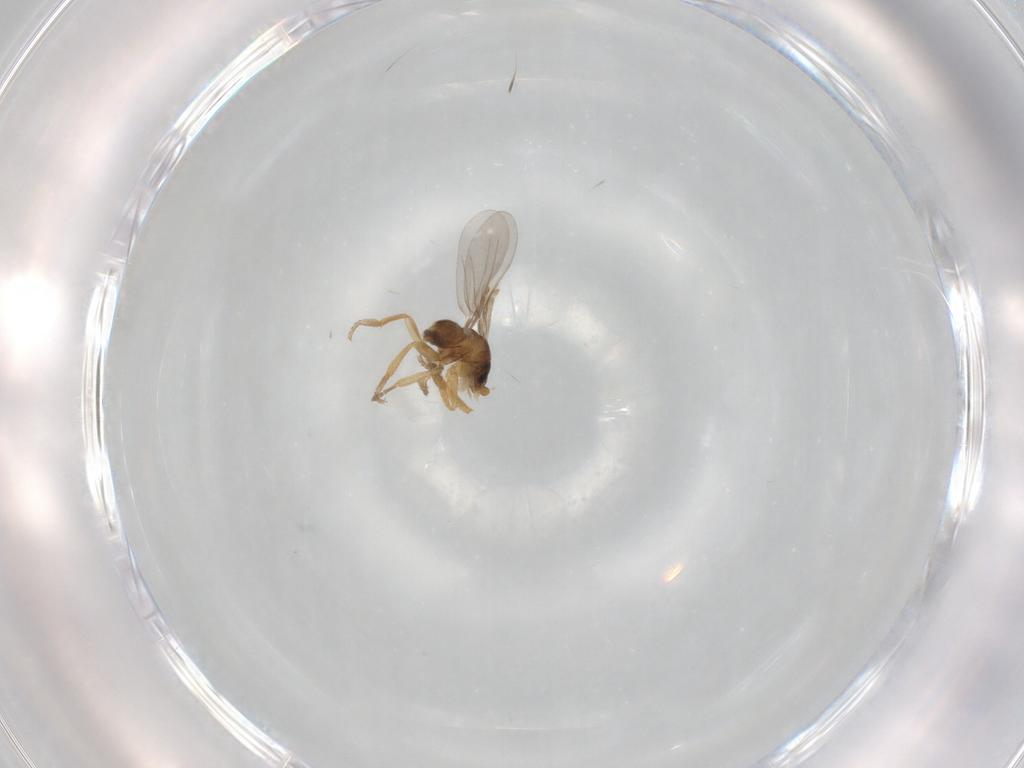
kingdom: Animalia
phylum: Arthropoda
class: Insecta
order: Diptera
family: Phoridae
